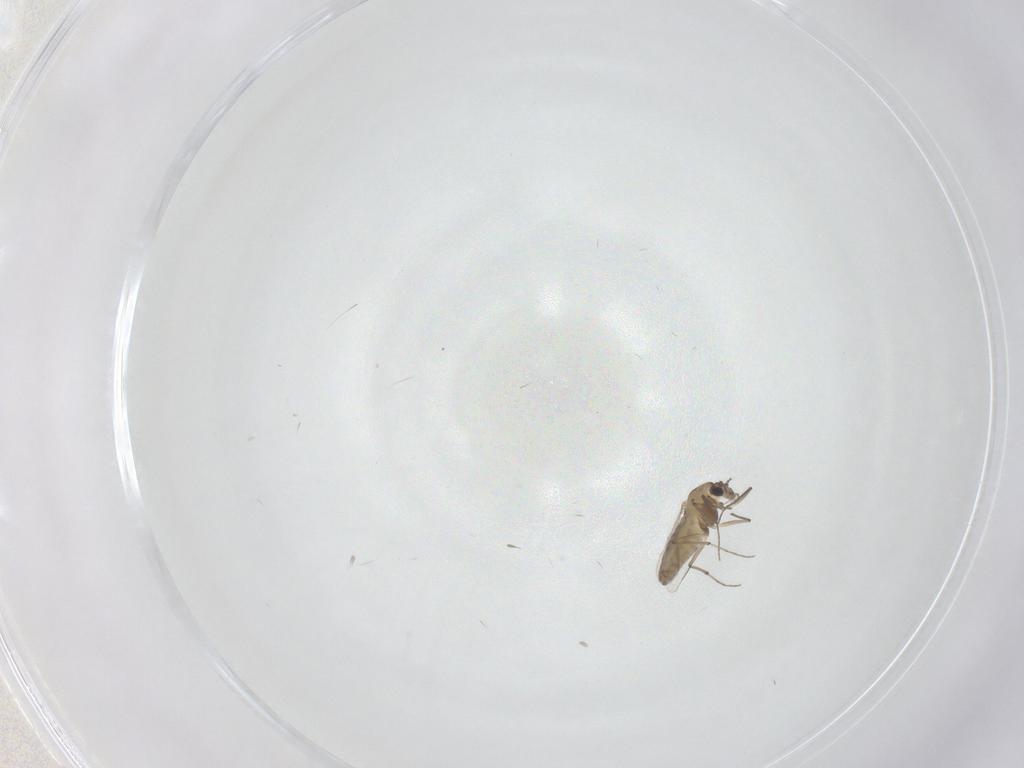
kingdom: Animalia
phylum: Arthropoda
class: Insecta
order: Diptera
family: Chironomidae
